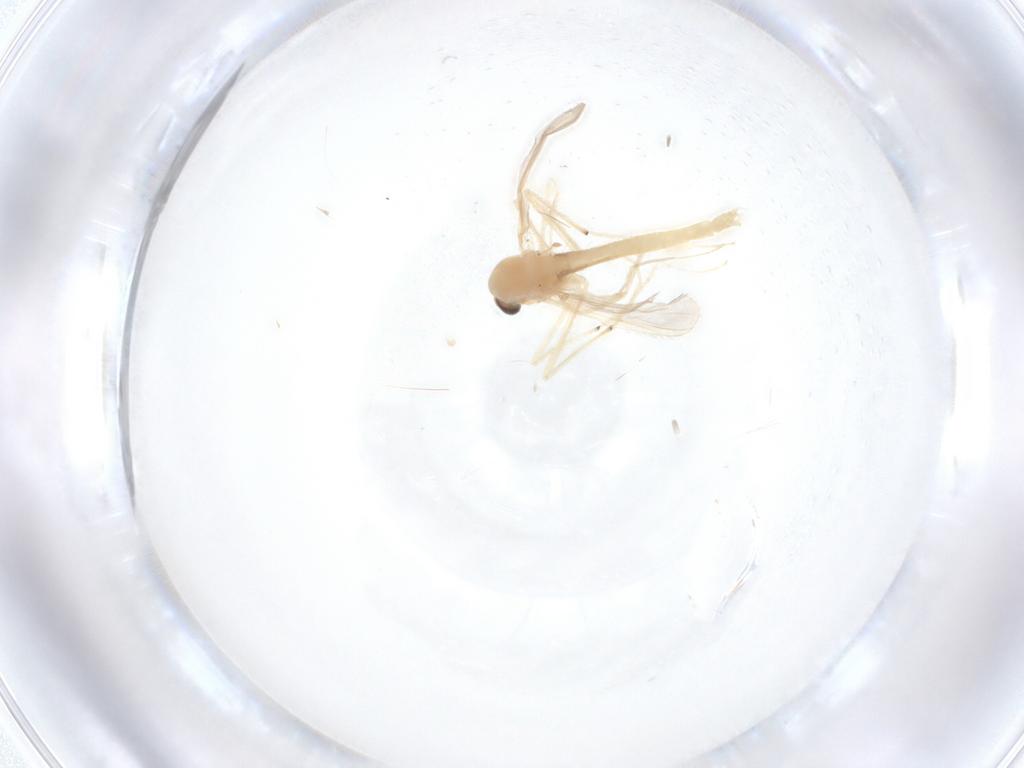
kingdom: Animalia
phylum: Arthropoda
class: Insecta
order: Diptera
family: Chironomidae
